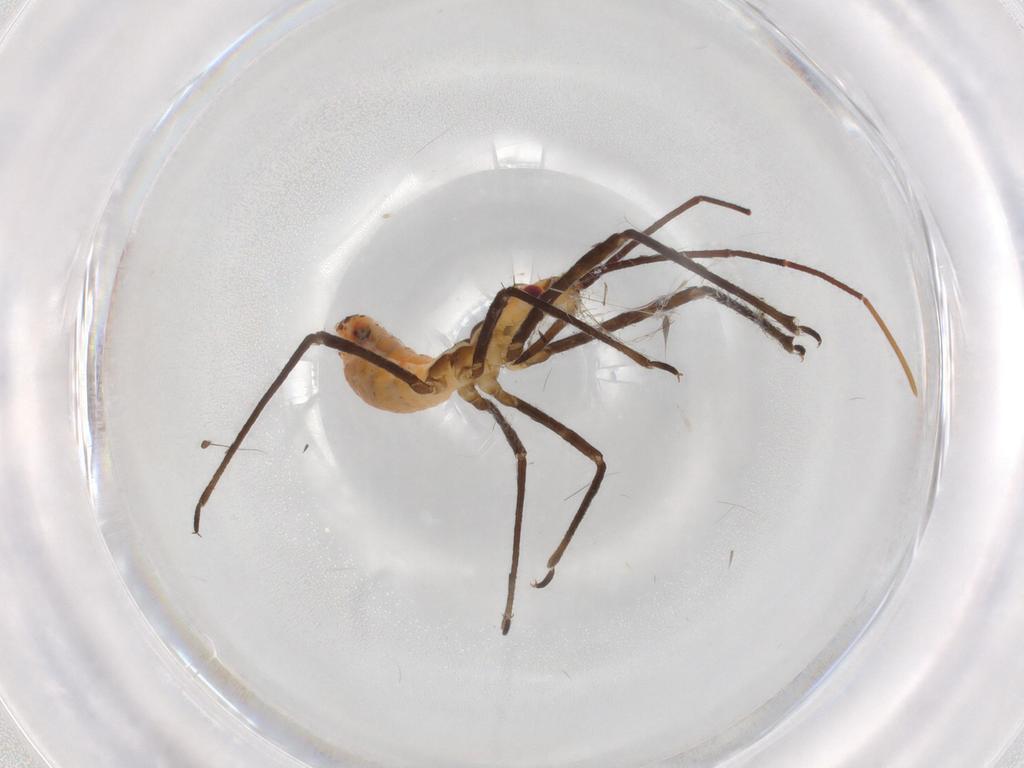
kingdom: Animalia
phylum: Arthropoda
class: Insecta
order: Hemiptera
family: Reduviidae
